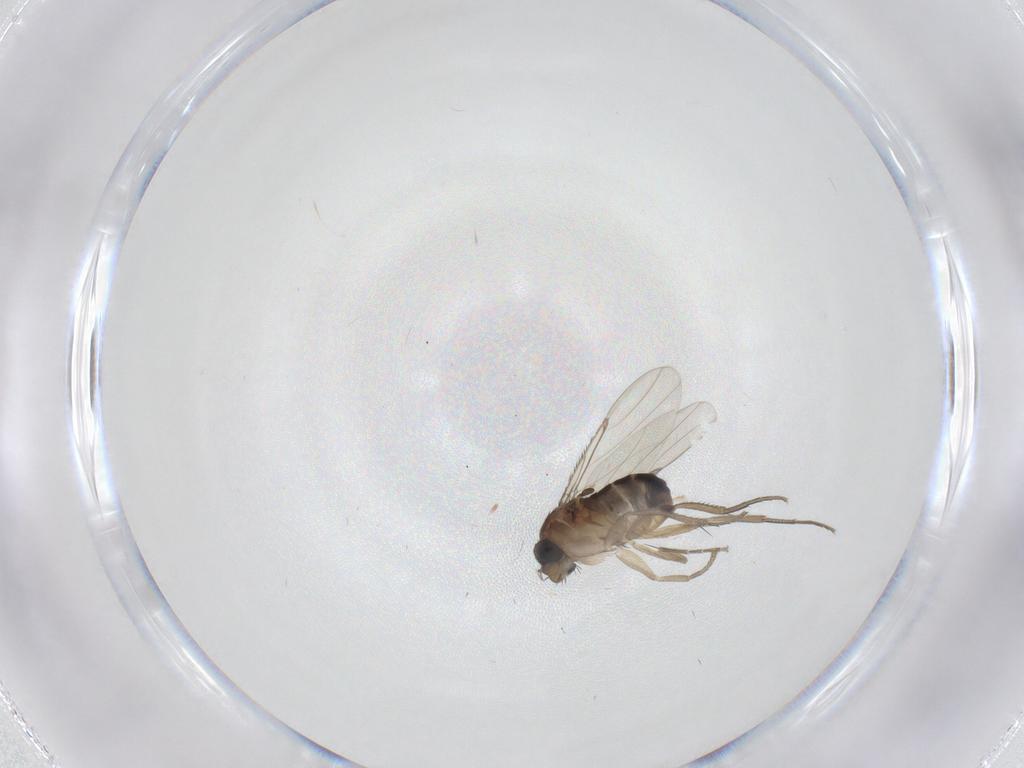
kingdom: Animalia
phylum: Arthropoda
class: Insecta
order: Diptera
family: Phoridae
